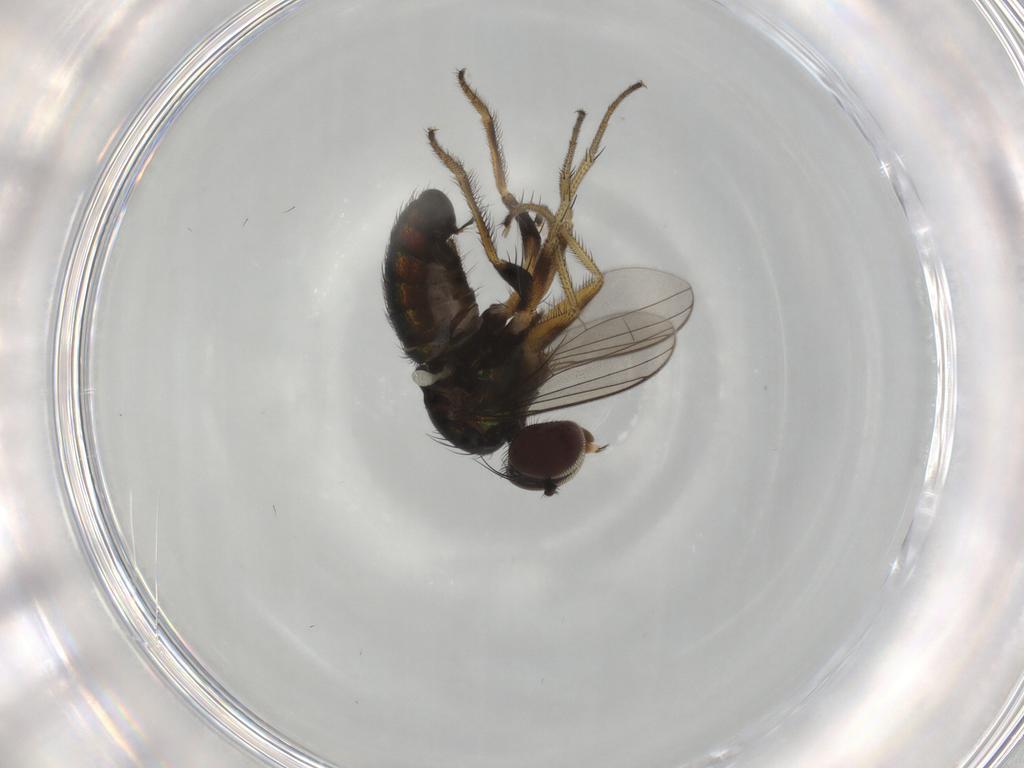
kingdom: Animalia
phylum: Arthropoda
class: Insecta
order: Diptera
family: Dolichopodidae
